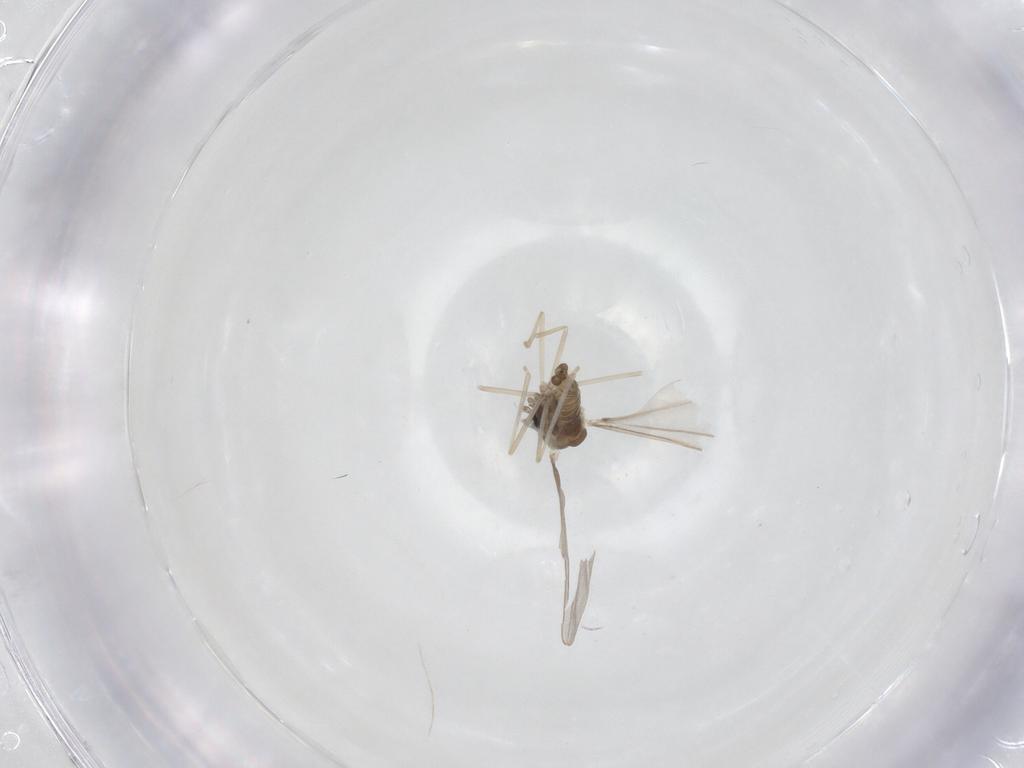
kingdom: Animalia
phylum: Arthropoda
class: Insecta
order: Diptera
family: Cecidomyiidae
